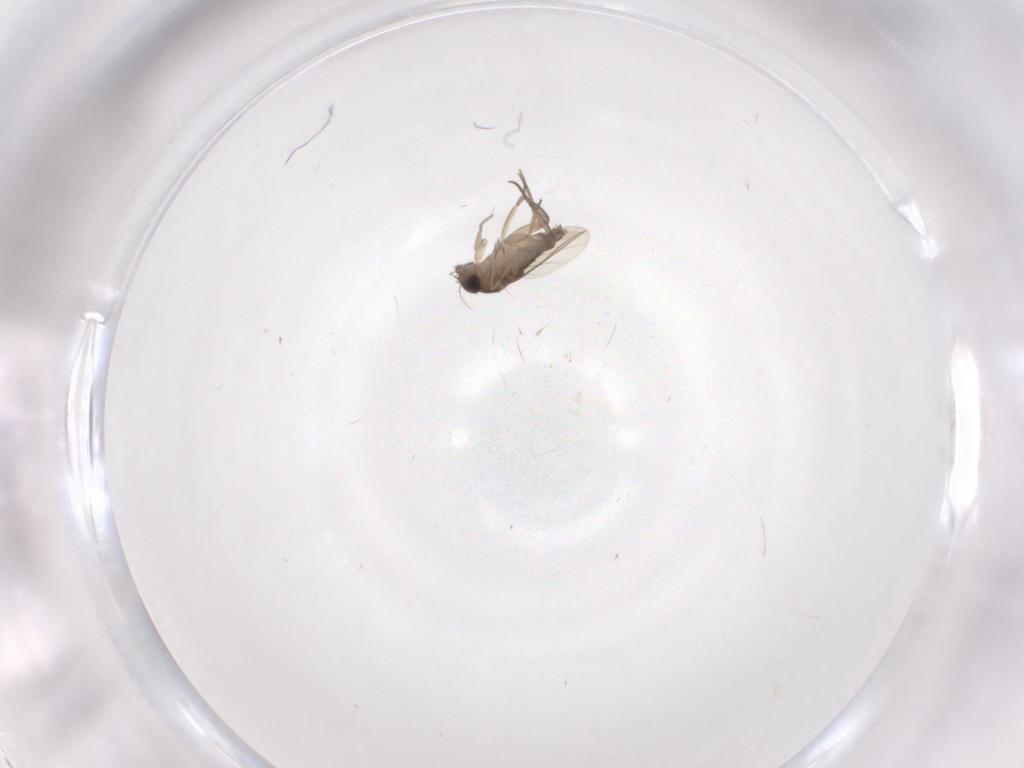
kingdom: Animalia
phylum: Arthropoda
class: Insecta
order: Diptera
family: Phoridae
